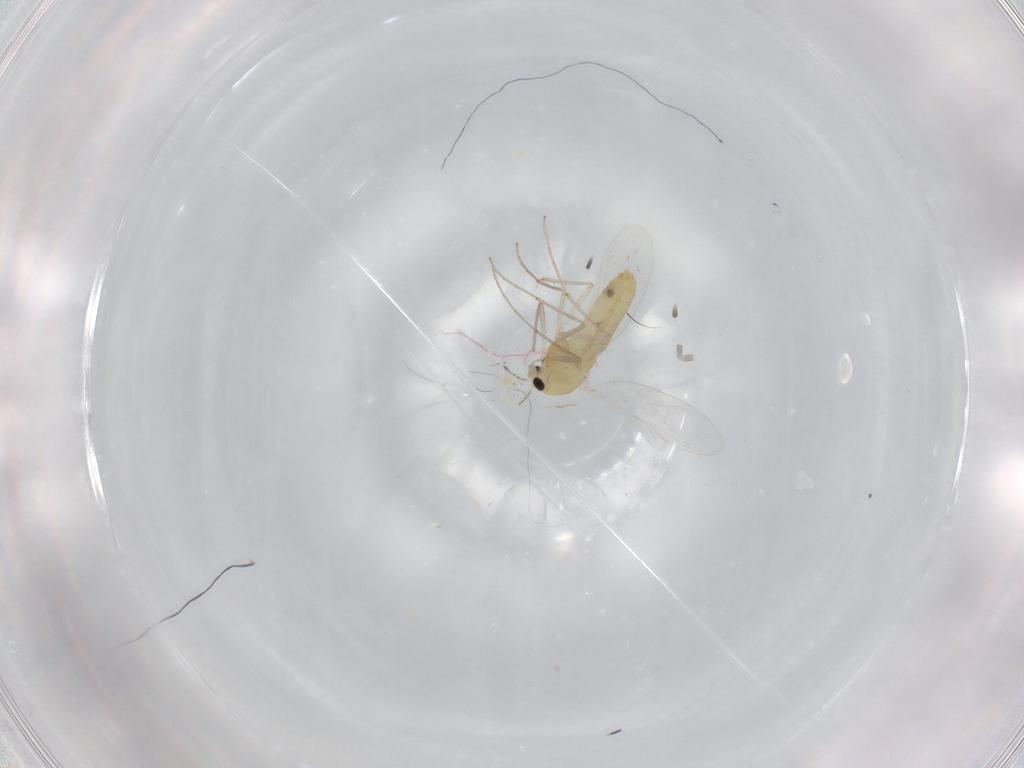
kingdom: Animalia
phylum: Arthropoda
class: Insecta
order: Diptera
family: Chironomidae
